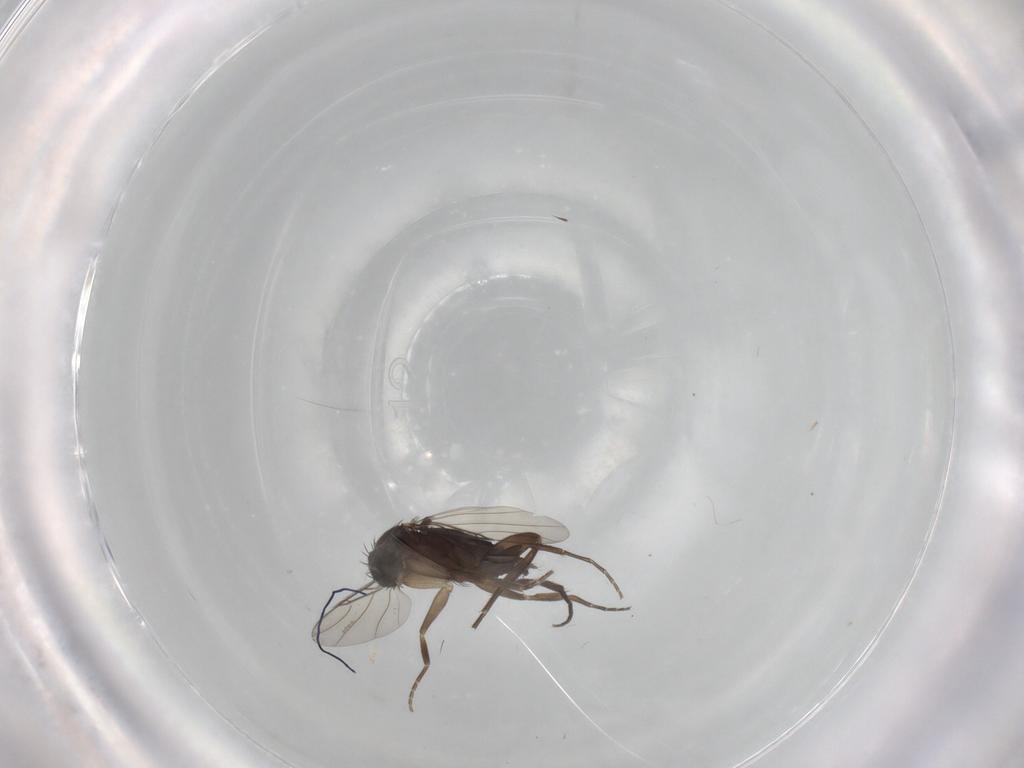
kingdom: Animalia
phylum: Arthropoda
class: Insecta
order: Diptera
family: Phoridae
